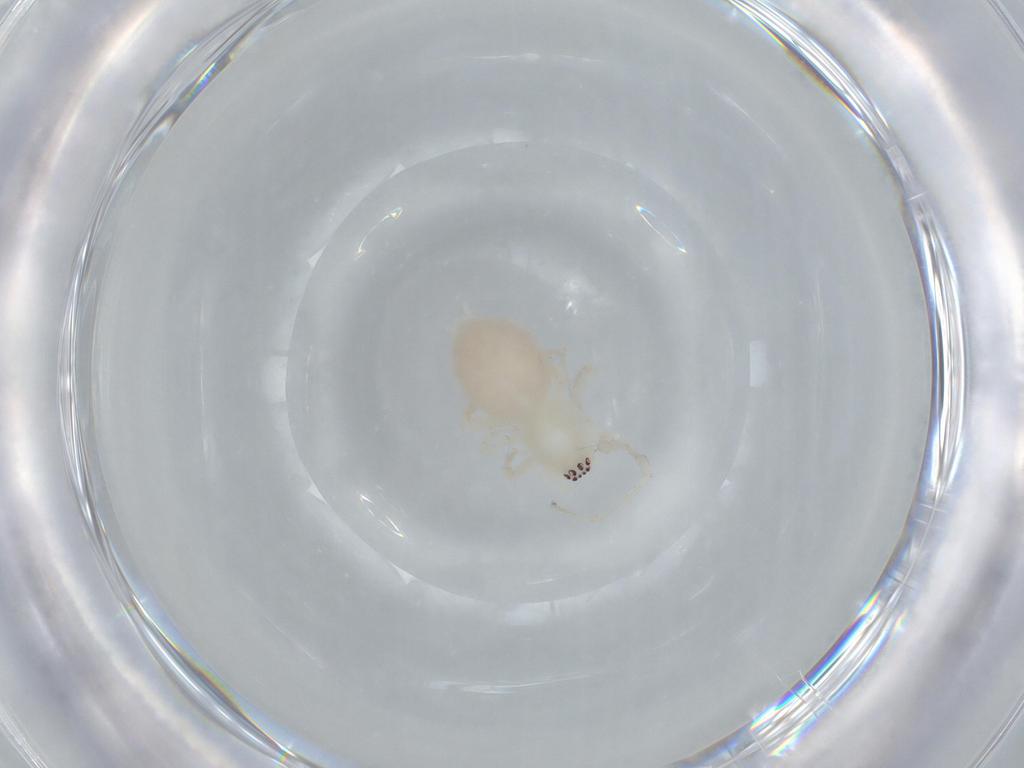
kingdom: Animalia
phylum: Arthropoda
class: Arachnida
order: Araneae
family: Anyphaenidae
